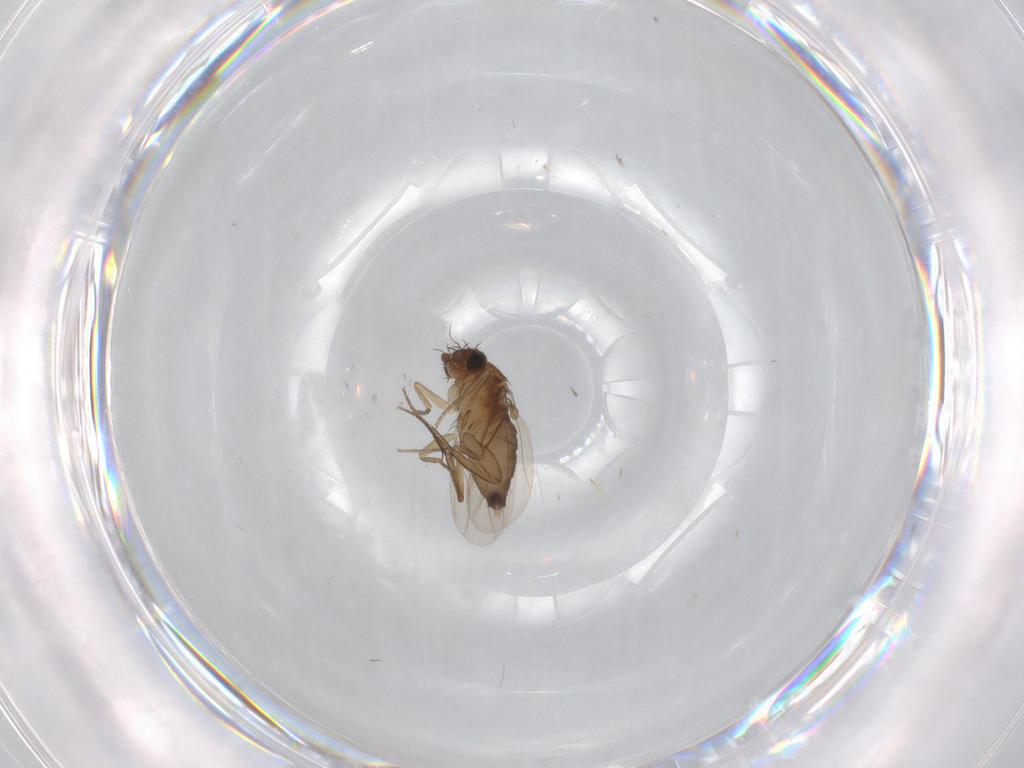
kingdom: Animalia
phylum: Arthropoda
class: Insecta
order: Diptera
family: Phoridae
